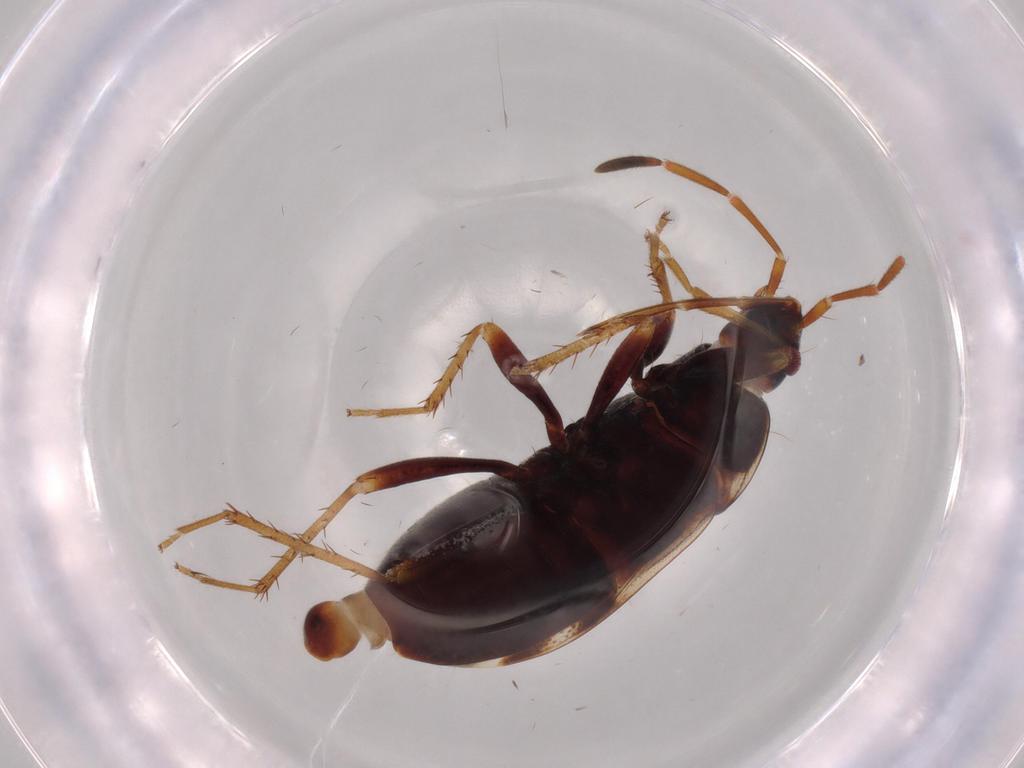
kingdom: Animalia
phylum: Arthropoda
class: Insecta
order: Hemiptera
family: Rhyparochromidae
